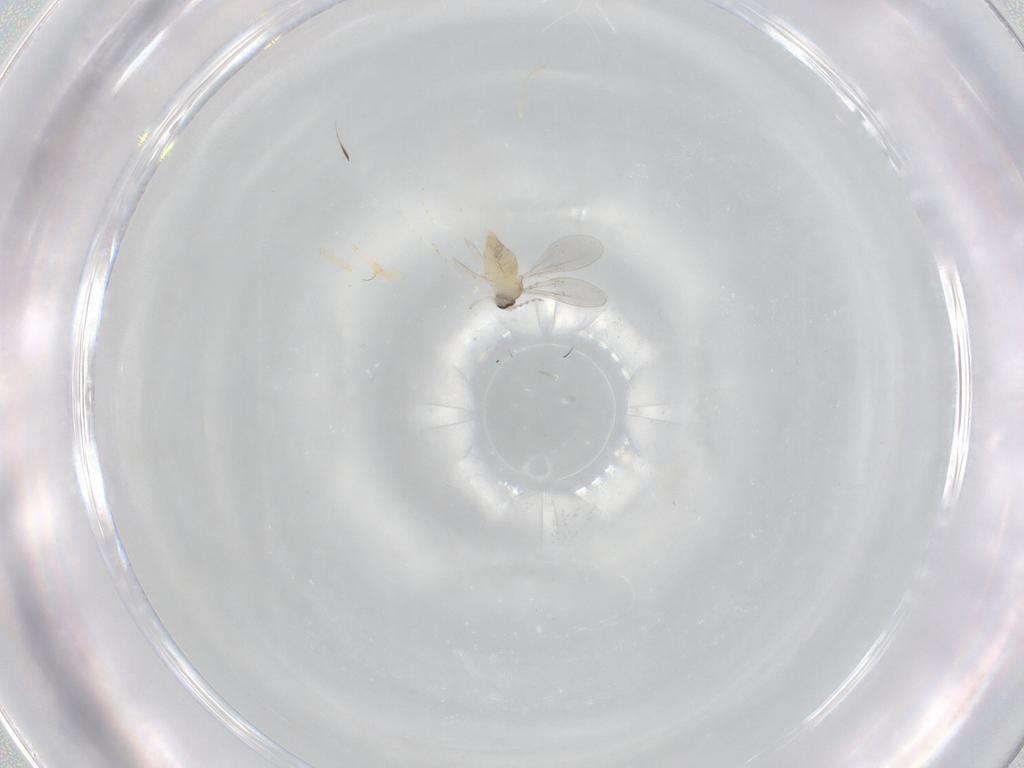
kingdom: Animalia
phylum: Arthropoda
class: Insecta
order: Diptera
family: Cecidomyiidae
